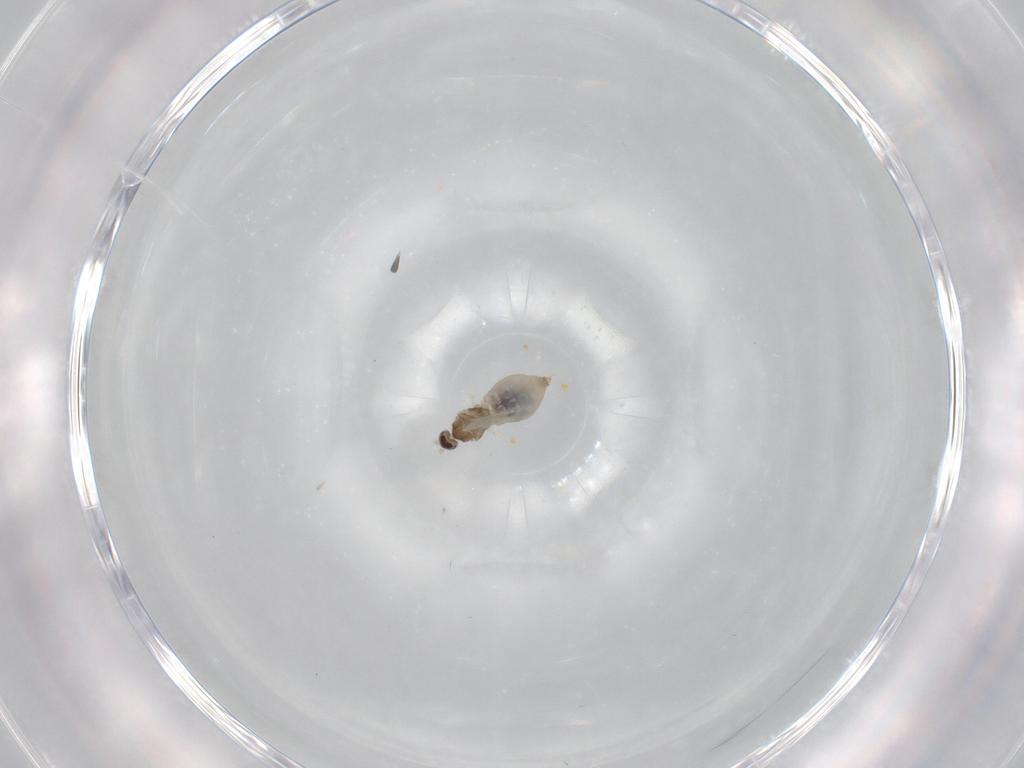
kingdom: Animalia
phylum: Arthropoda
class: Insecta
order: Diptera
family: Cecidomyiidae
